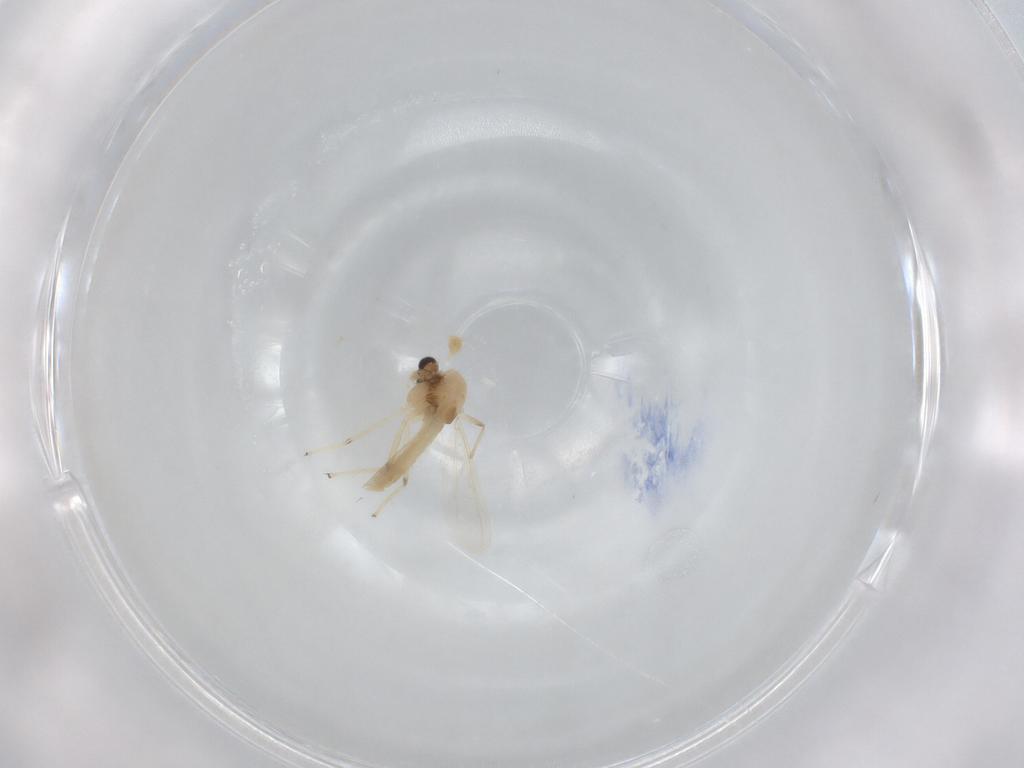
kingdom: Animalia
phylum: Arthropoda
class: Insecta
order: Diptera
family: Chironomidae
